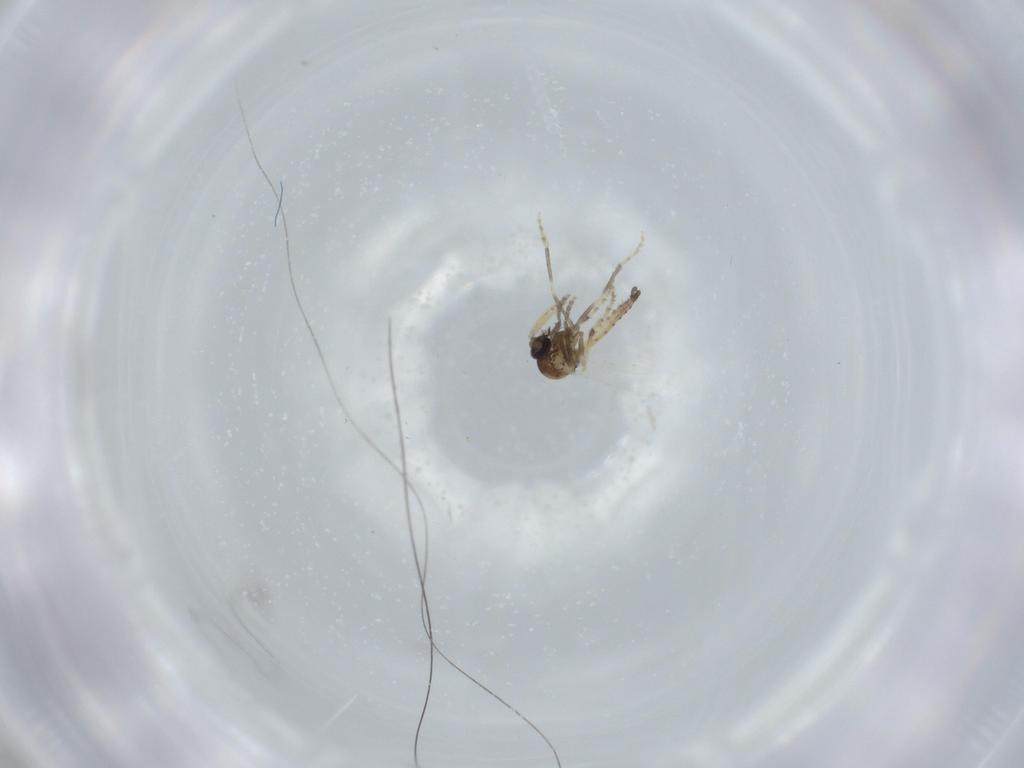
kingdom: Animalia
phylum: Arthropoda
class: Insecta
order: Diptera
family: Ceratopogonidae
